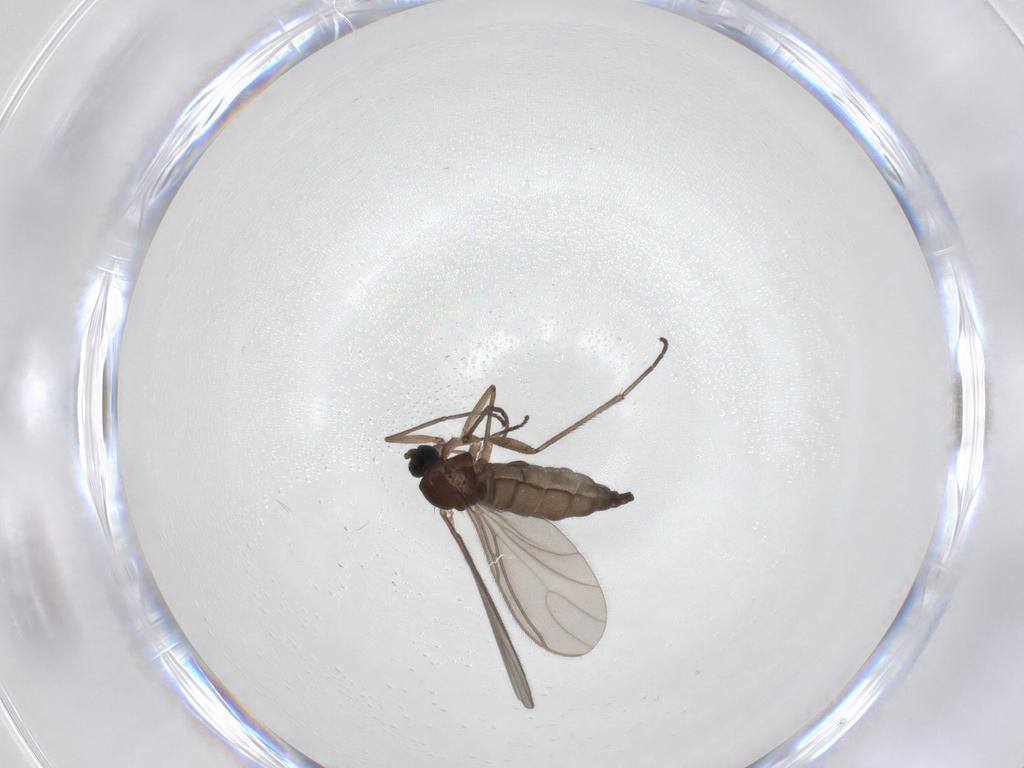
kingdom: Animalia
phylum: Arthropoda
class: Insecta
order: Diptera
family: Sciaridae
